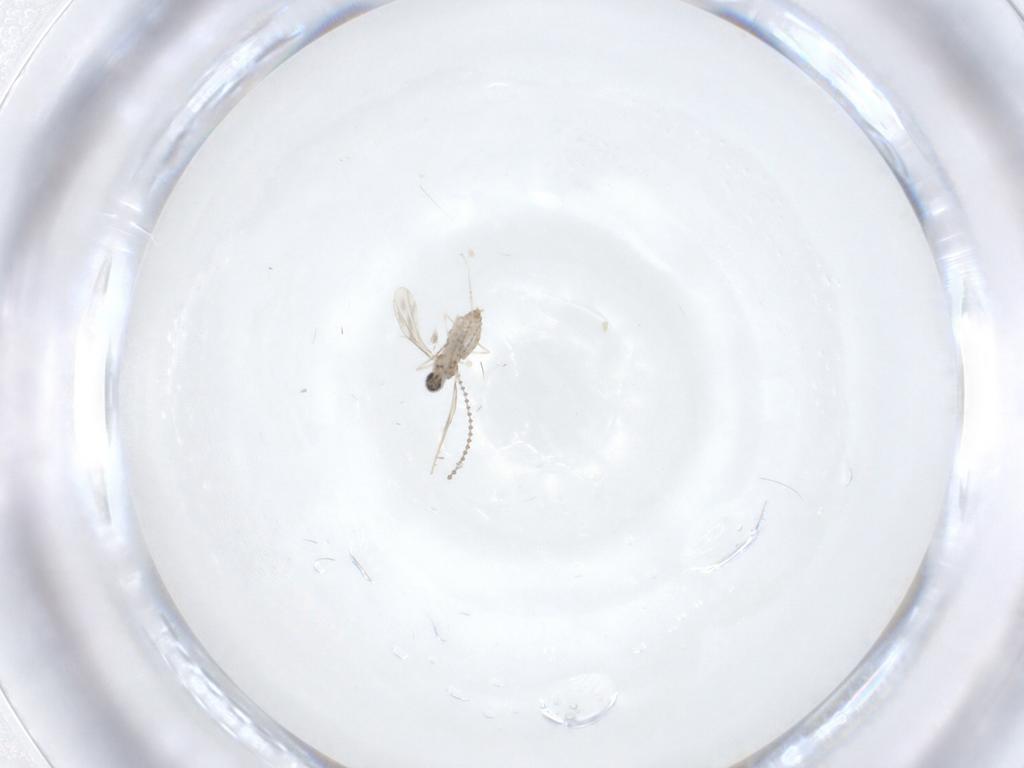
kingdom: Animalia
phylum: Arthropoda
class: Insecta
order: Diptera
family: Cecidomyiidae
